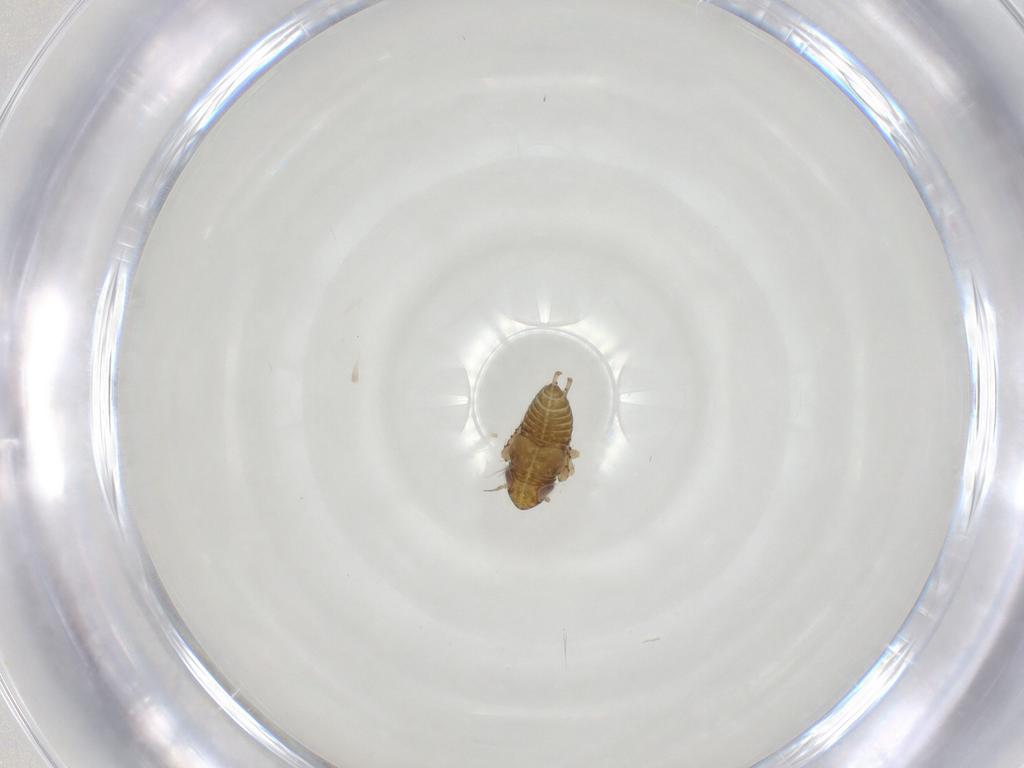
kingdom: Animalia
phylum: Arthropoda
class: Insecta
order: Hemiptera
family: Cicadellidae
